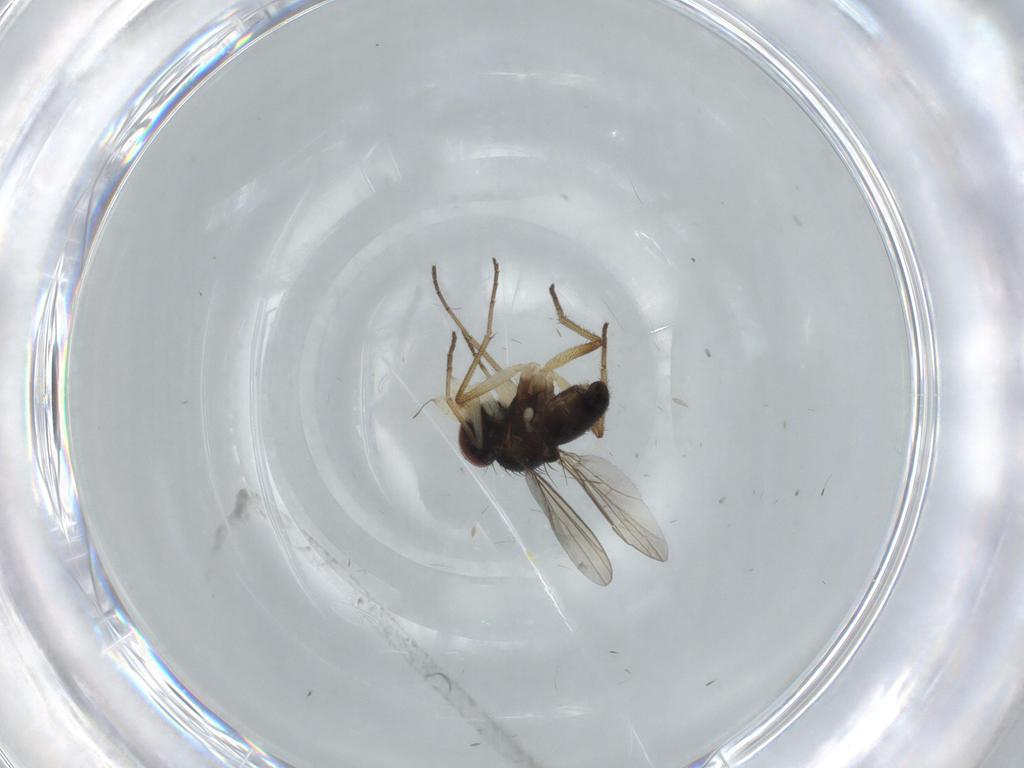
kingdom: Animalia
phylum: Arthropoda
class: Insecta
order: Diptera
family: Dolichopodidae
